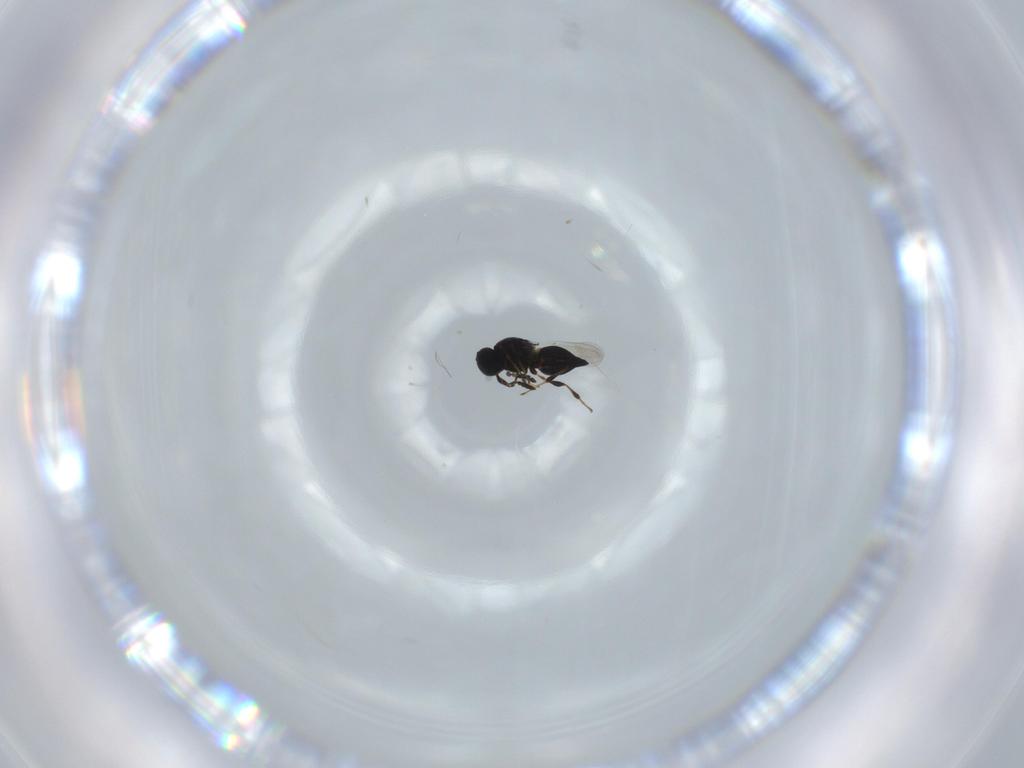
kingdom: Animalia
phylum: Arthropoda
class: Insecta
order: Hymenoptera
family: Platygastridae
